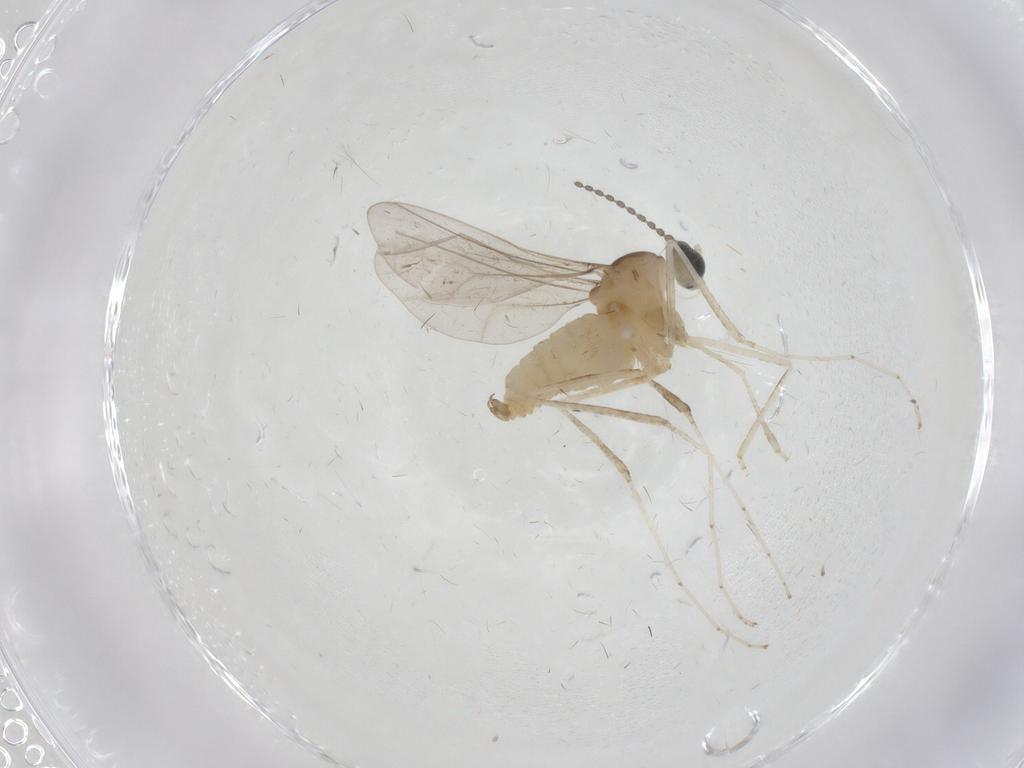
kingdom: Animalia
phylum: Arthropoda
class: Insecta
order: Diptera
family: Cecidomyiidae
